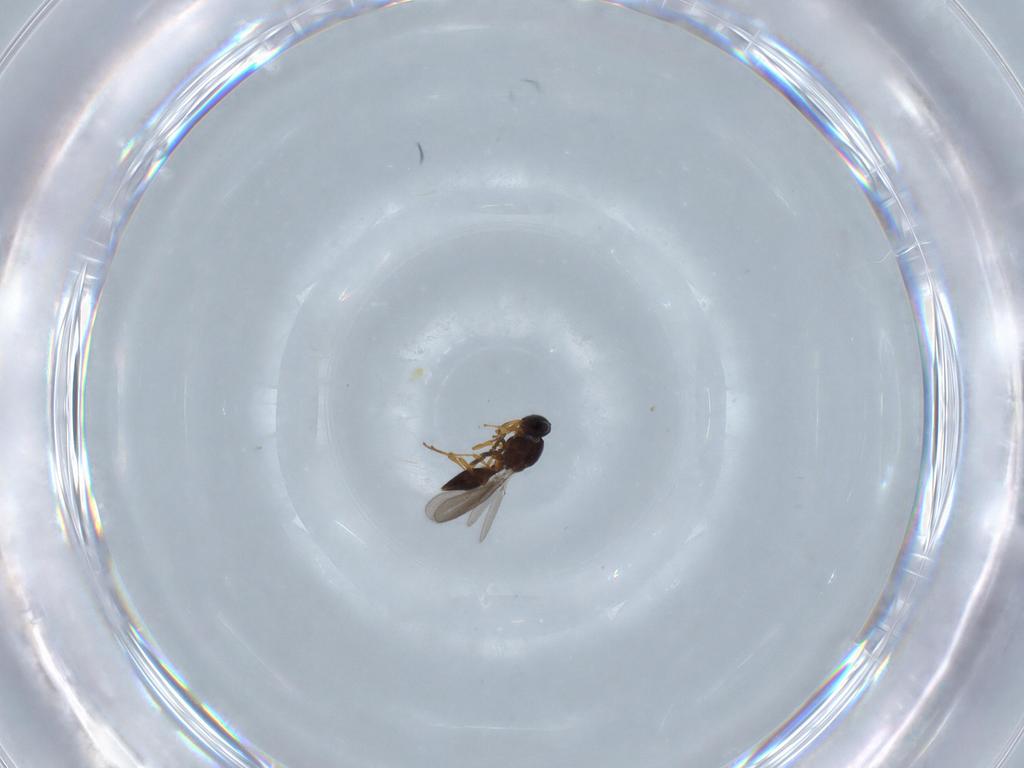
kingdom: Animalia
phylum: Arthropoda
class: Insecta
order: Hymenoptera
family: Platygastridae
